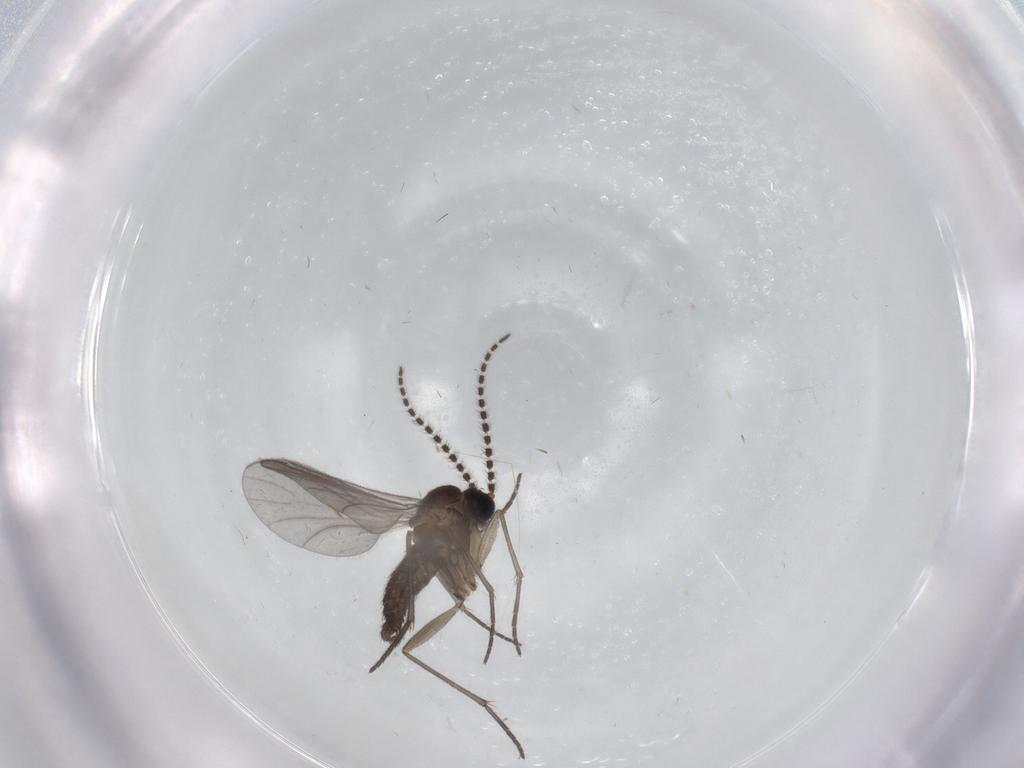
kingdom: Animalia
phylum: Arthropoda
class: Insecta
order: Diptera
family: Sciaridae
